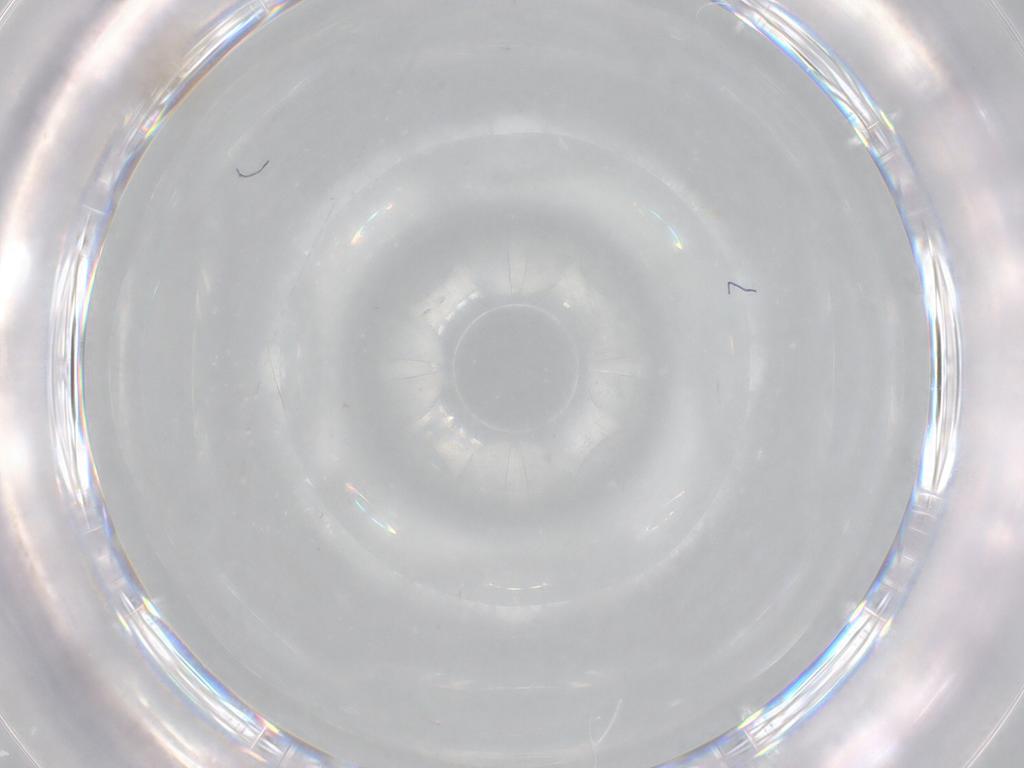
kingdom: Animalia
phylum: Arthropoda
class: Insecta
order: Diptera
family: Cecidomyiidae
